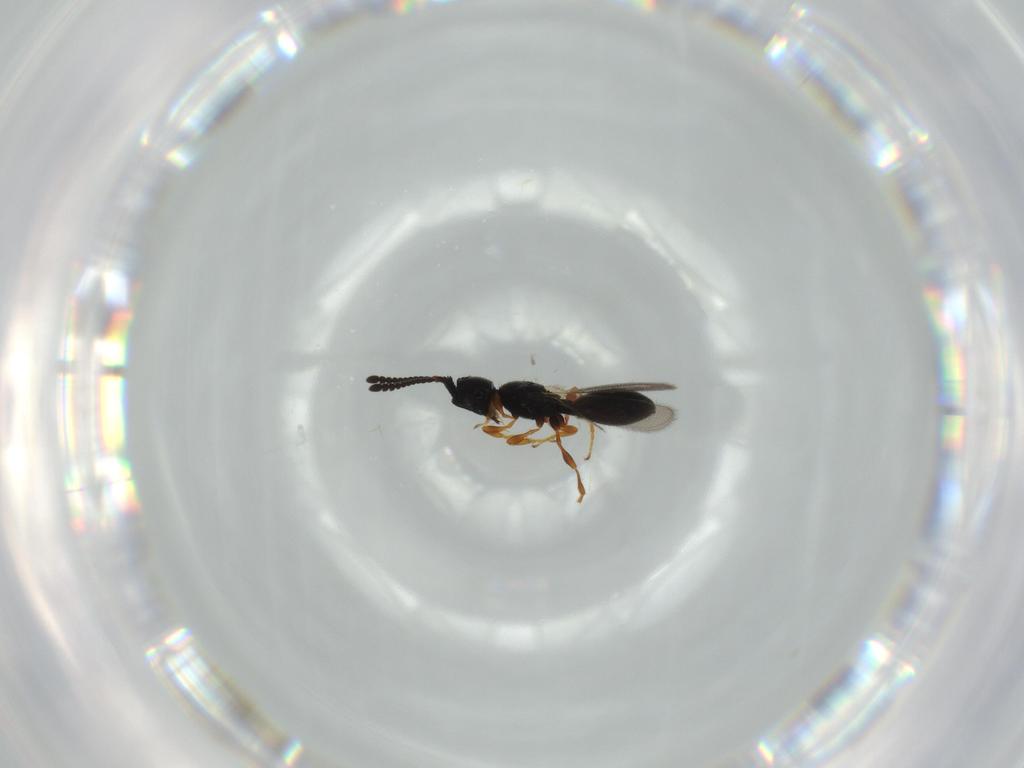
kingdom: Animalia
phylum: Arthropoda
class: Insecta
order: Hymenoptera
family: Diapriidae
